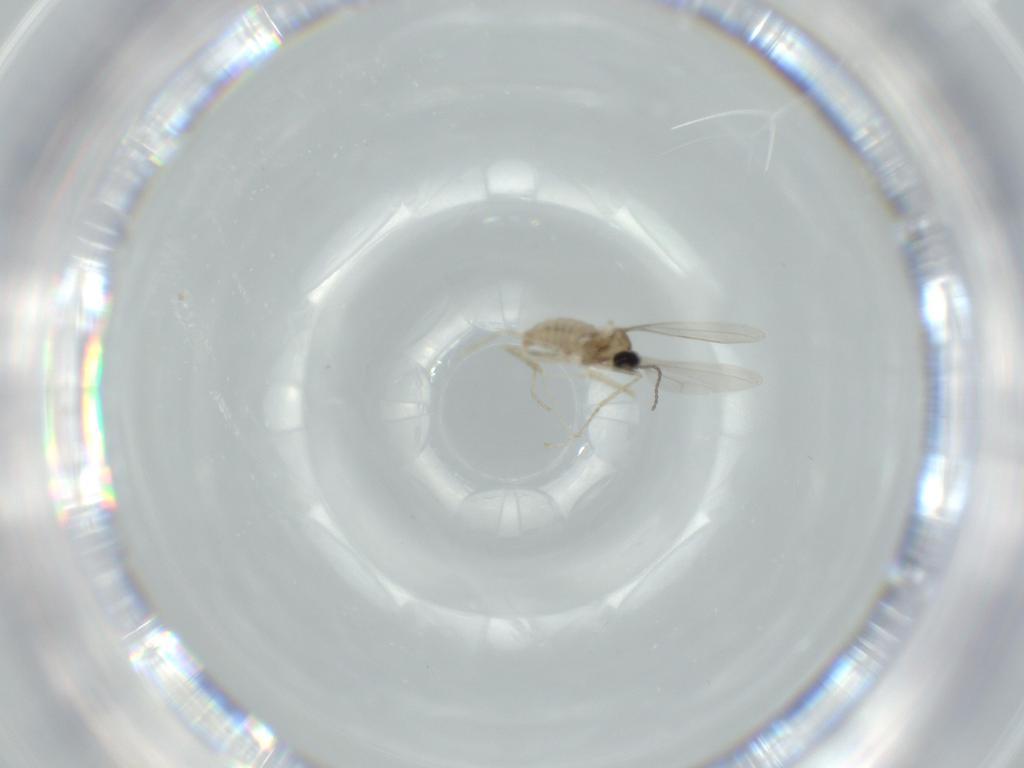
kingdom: Animalia
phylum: Arthropoda
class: Insecta
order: Diptera
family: Cecidomyiidae
